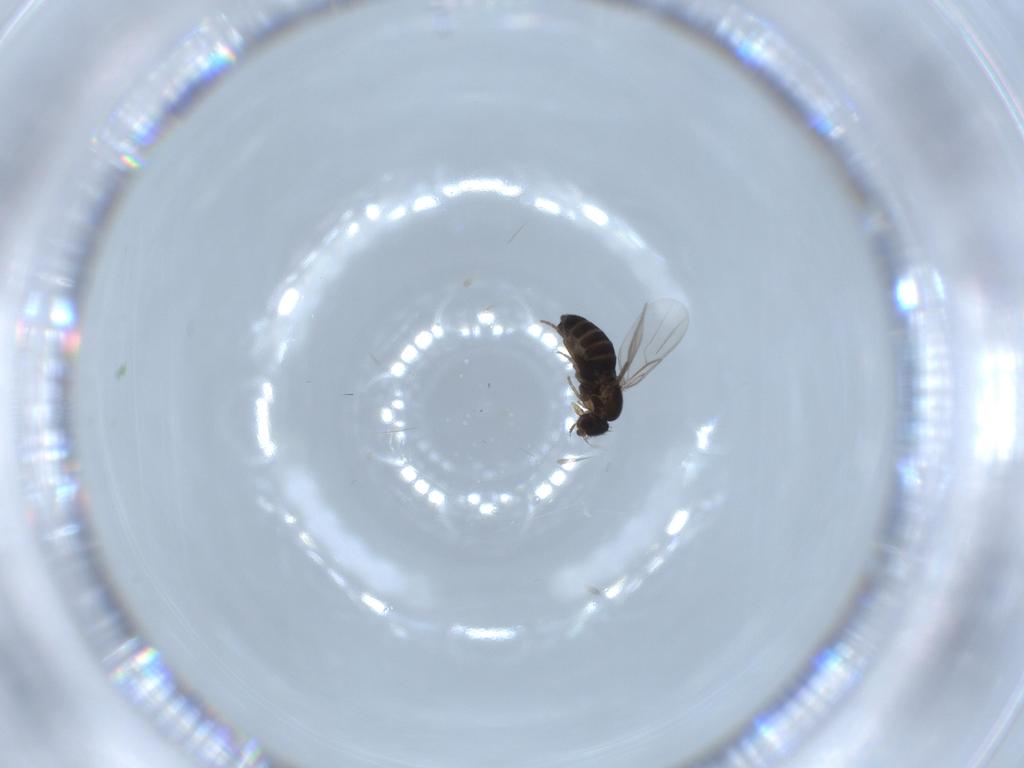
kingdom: Animalia
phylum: Arthropoda
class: Insecta
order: Diptera
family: Phoridae
